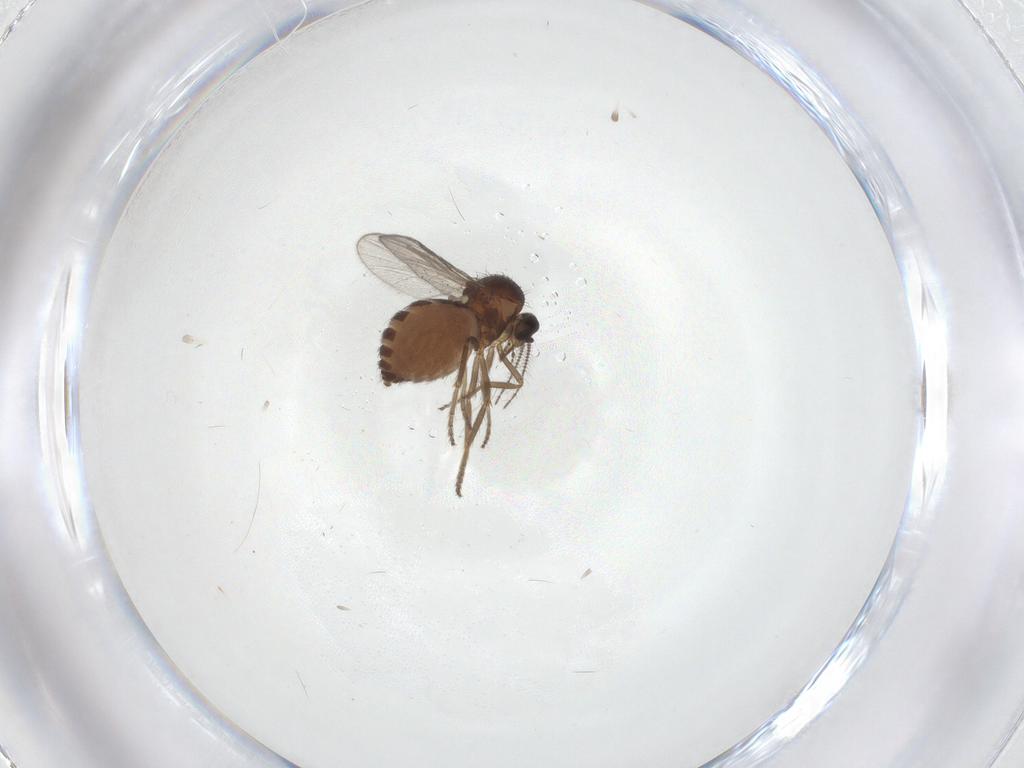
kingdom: Animalia
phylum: Arthropoda
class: Insecta
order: Diptera
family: Ceratopogonidae
